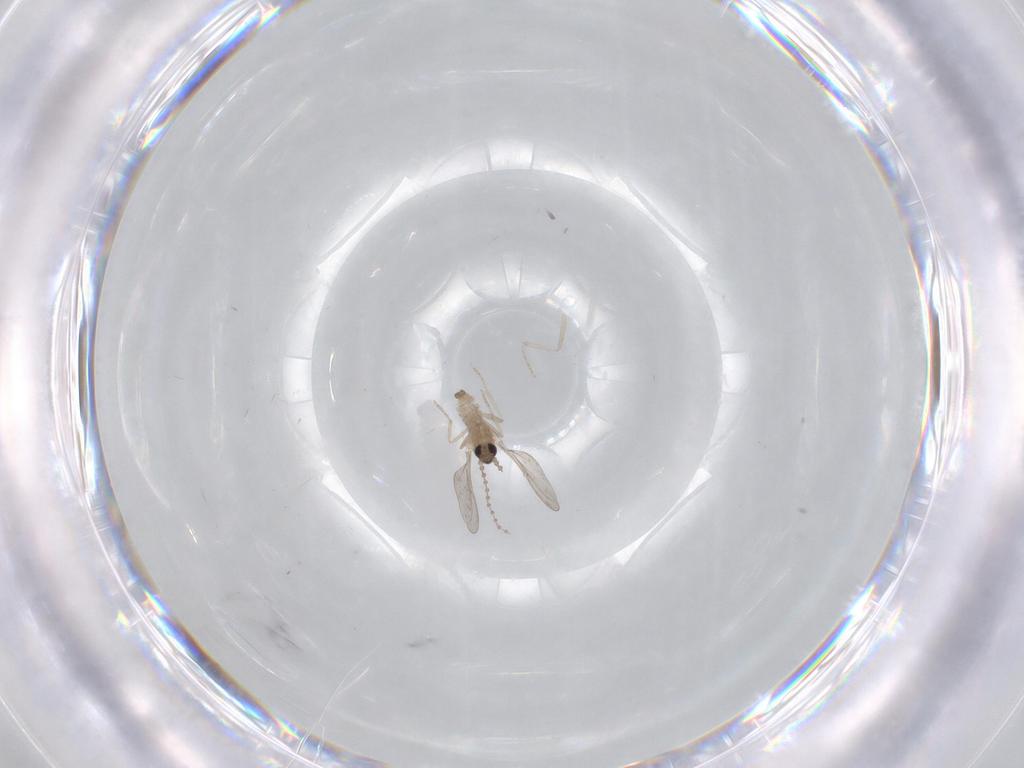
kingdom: Animalia
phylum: Arthropoda
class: Insecta
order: Diptera
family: Cecidomyiidae
